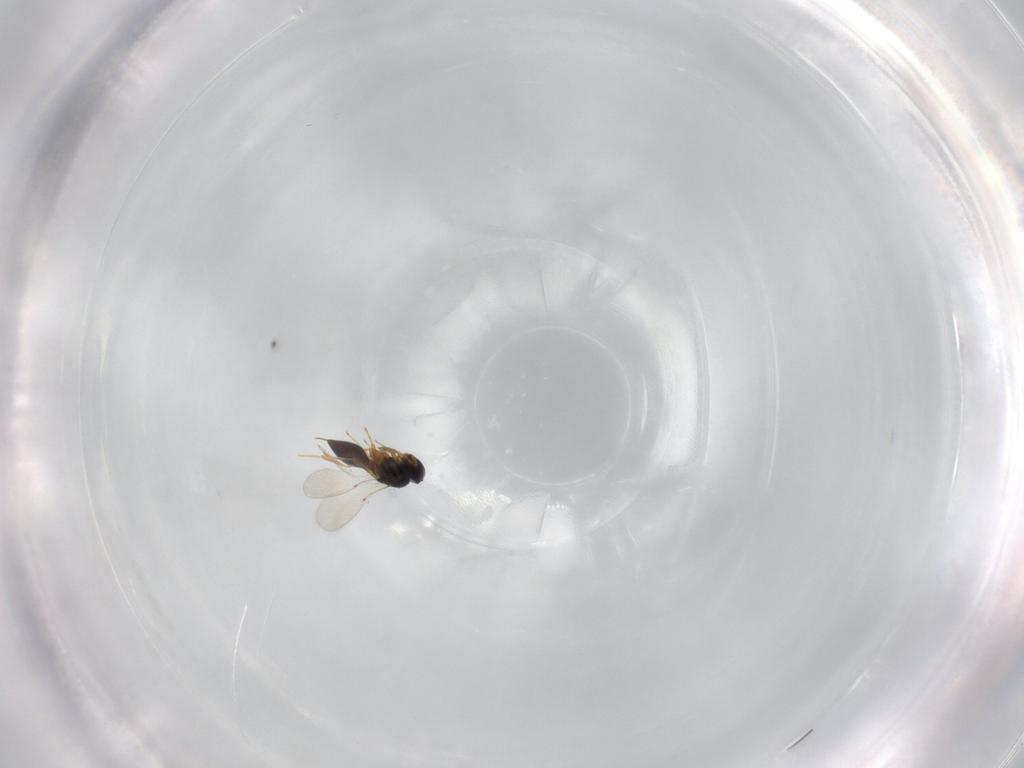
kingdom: Animalia
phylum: Arthropoda
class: Insecta
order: Hymenoptera
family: Platygastridae
